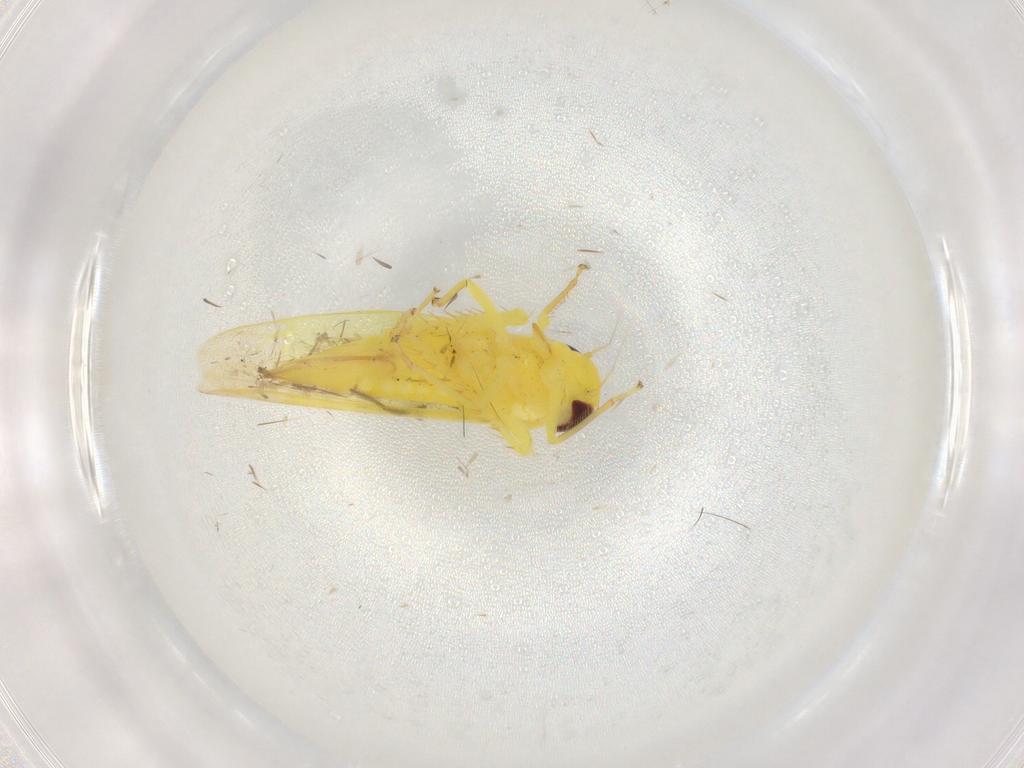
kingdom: Animalia
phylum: Arthropoda
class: Insecta
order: Hemiptera
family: Cicadellidae
